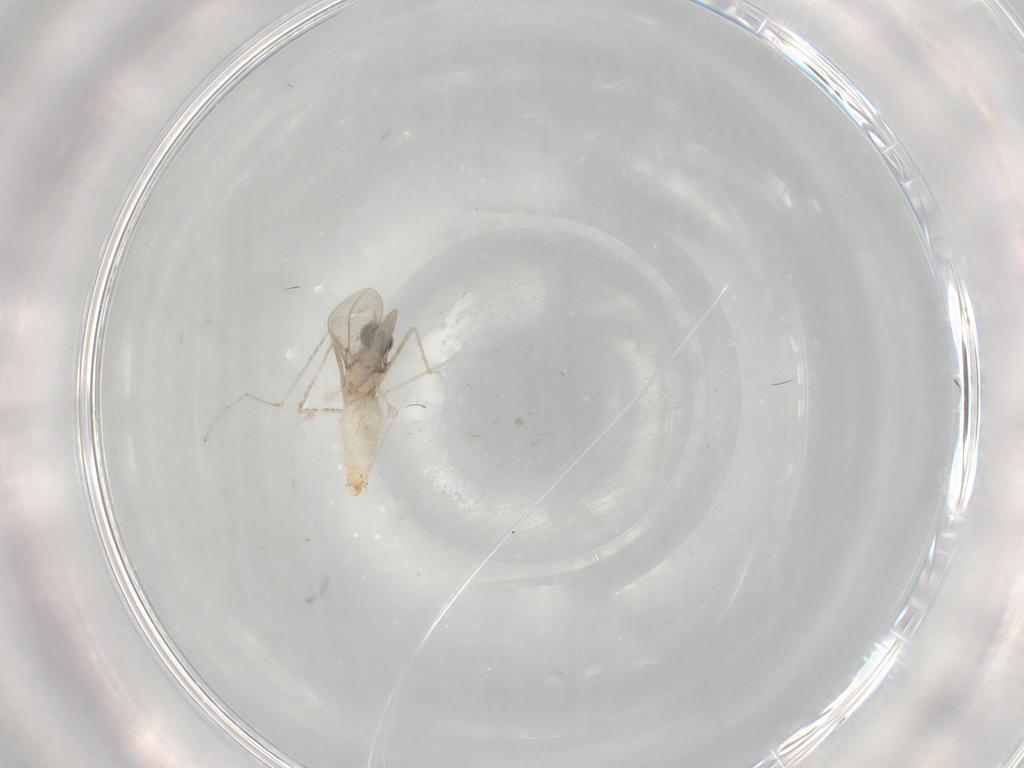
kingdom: Animalia
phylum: Arthropoda
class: Insecta
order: Diptera
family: Cecidomyiidae
